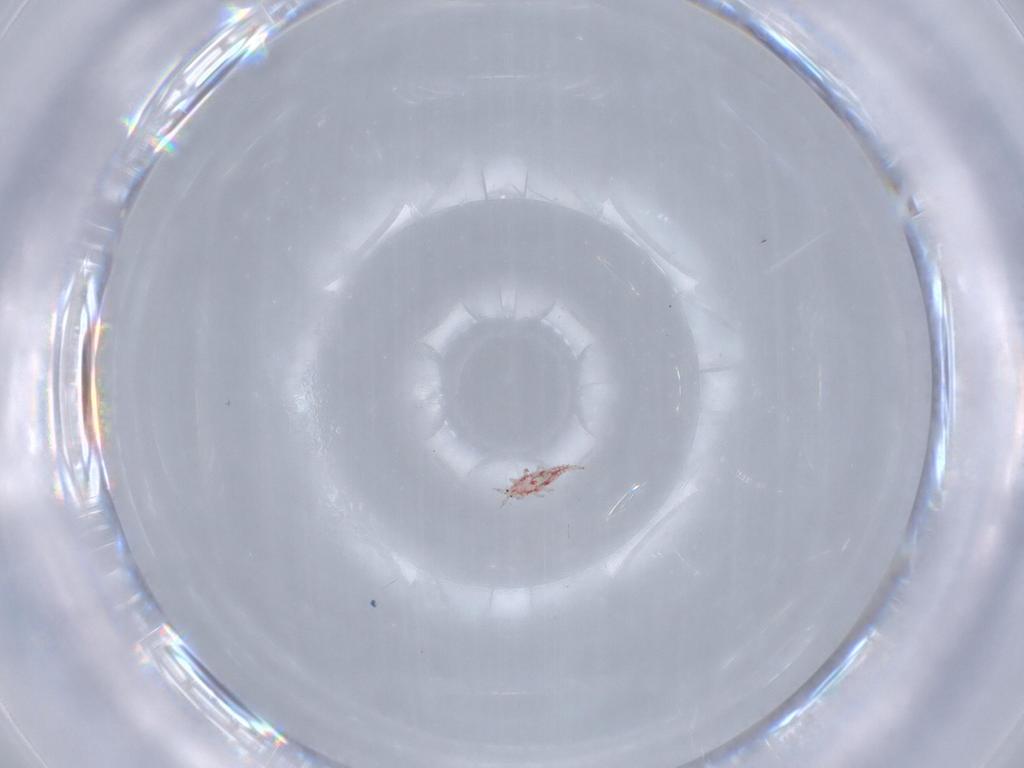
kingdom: Animalia
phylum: Arthropoda
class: Insecta
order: Thysanoptera
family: Phlaeothripidae
